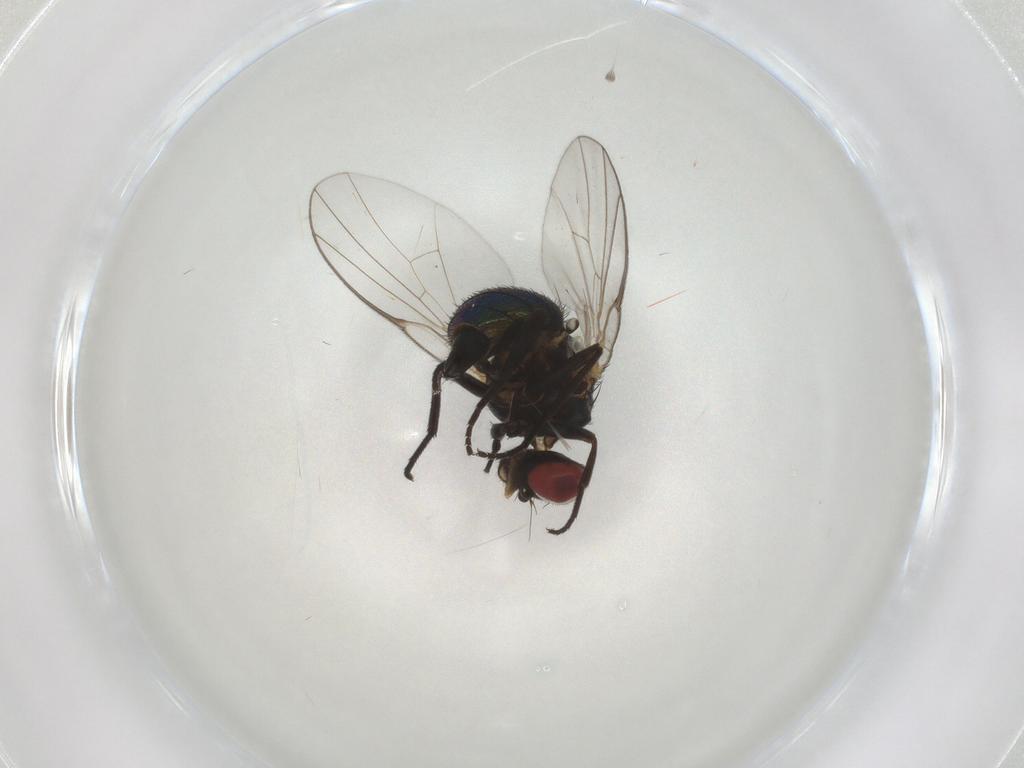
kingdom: Animalia
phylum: Arthropoda
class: Insecta
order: Diptera
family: Agromyzidae
